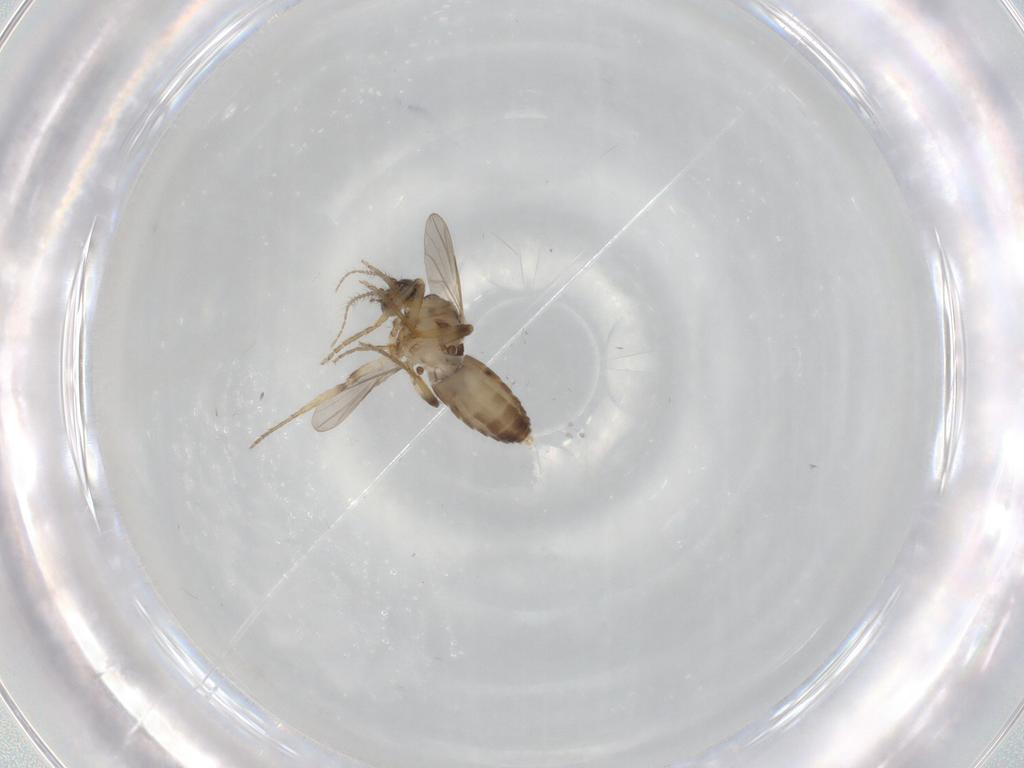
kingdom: Animalia
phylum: Arthropoda
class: Insecta
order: Diptera
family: Ceratopogonidae
